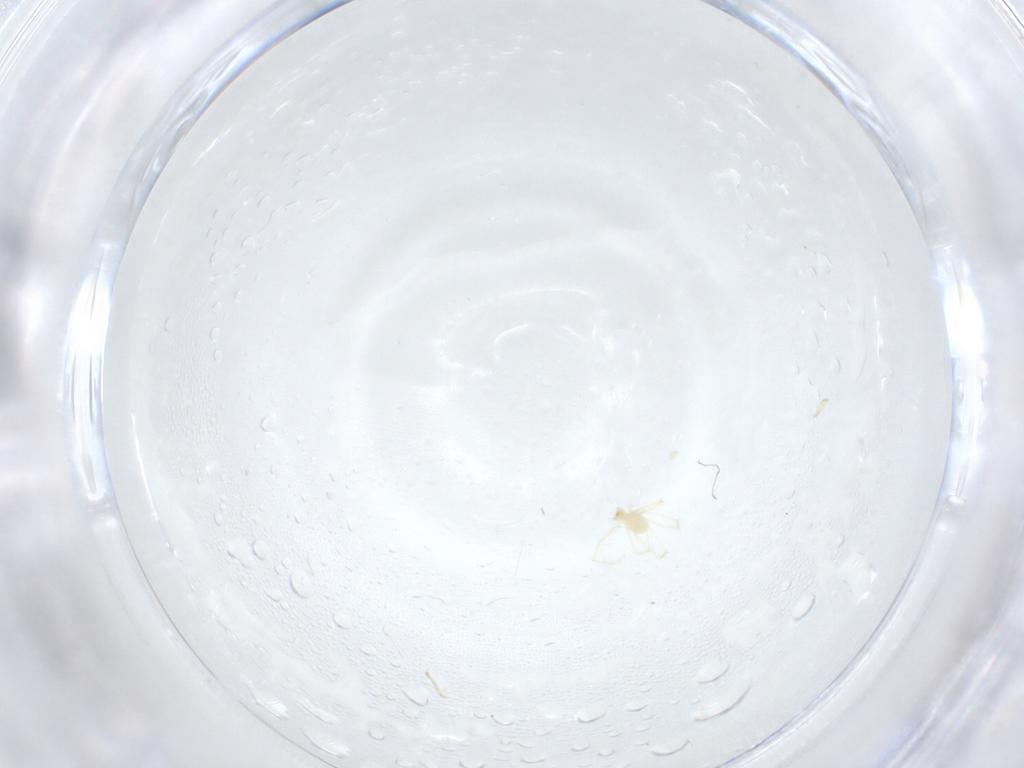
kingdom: Animalia
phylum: Arthropoda
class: Arachnida
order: Trombidiformes
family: Erythraeidae
